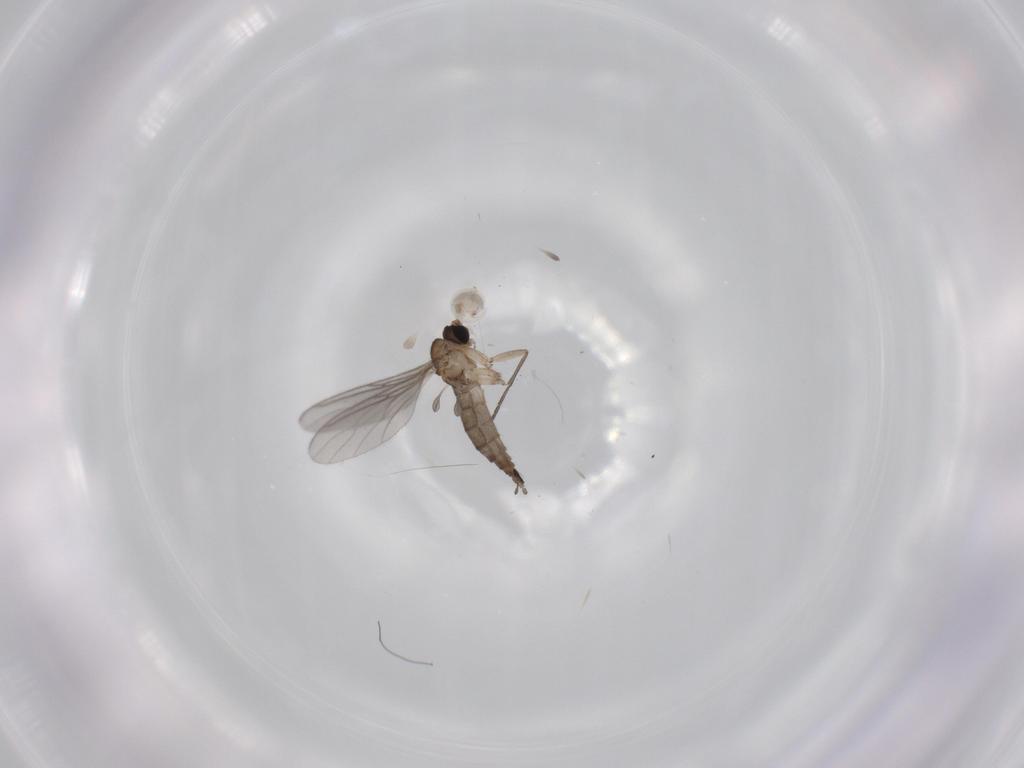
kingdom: Animalia
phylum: Arthropoda
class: Insecta
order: Diptera
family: Sciaridae
